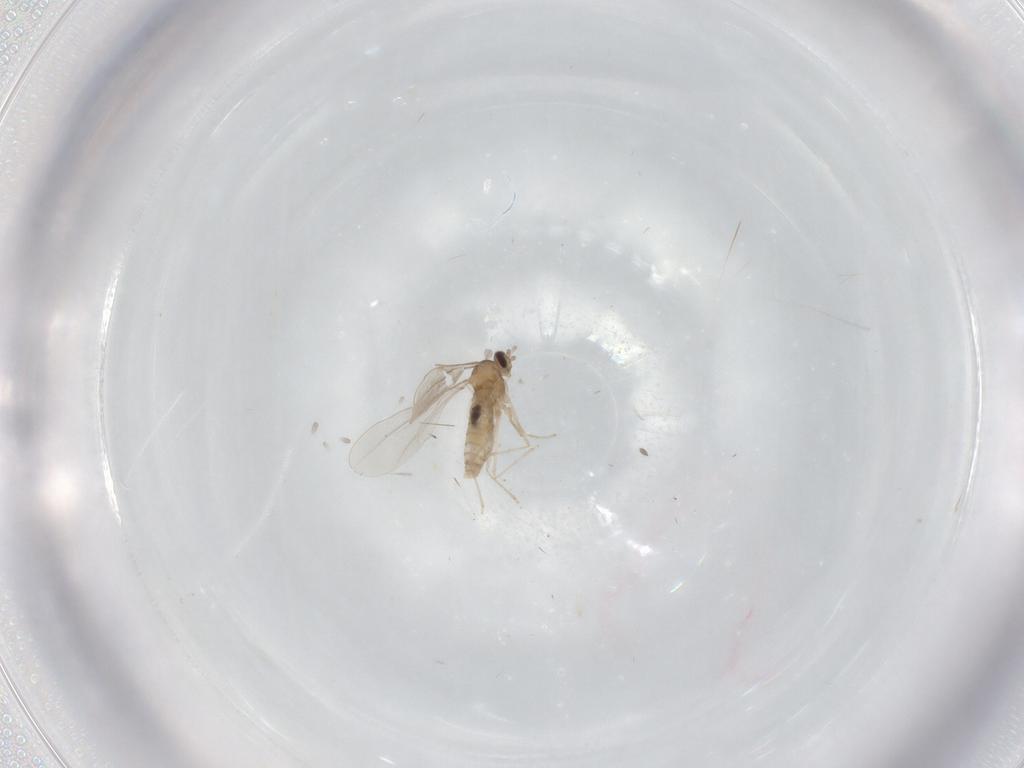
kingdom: Animalia
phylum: Arthropoda
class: Insecta
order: Diptera
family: Cecidomyiidae
